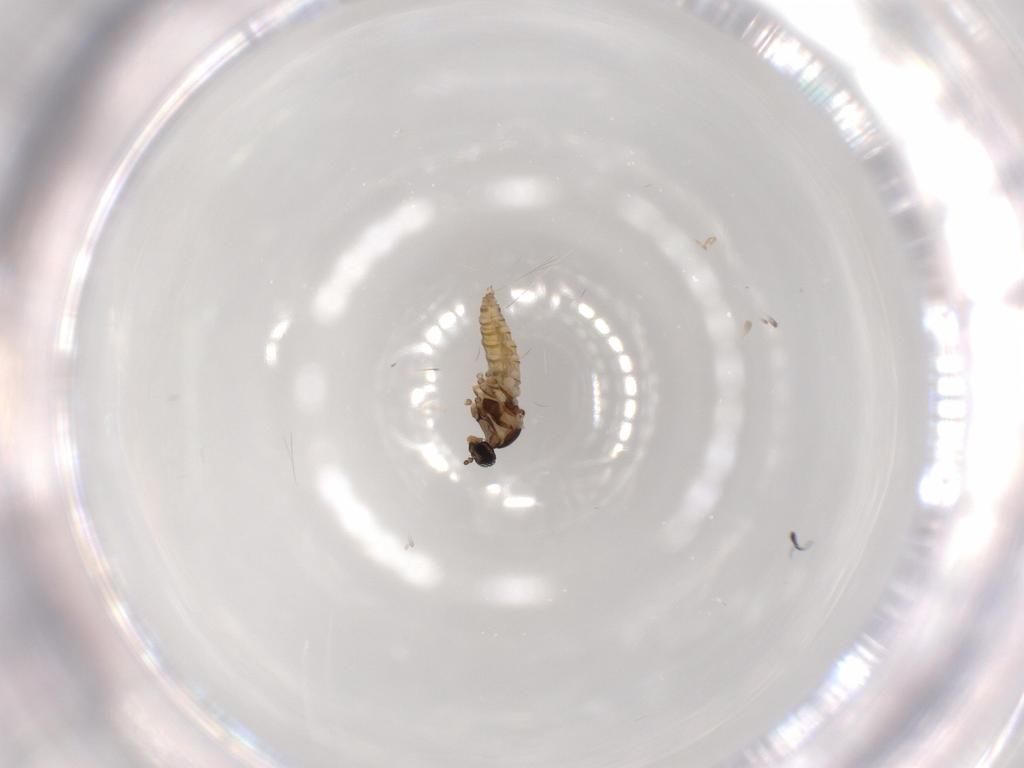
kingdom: Animalia
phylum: Arthropoda
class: Insecta
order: Diptera
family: Cecidomyiidae
